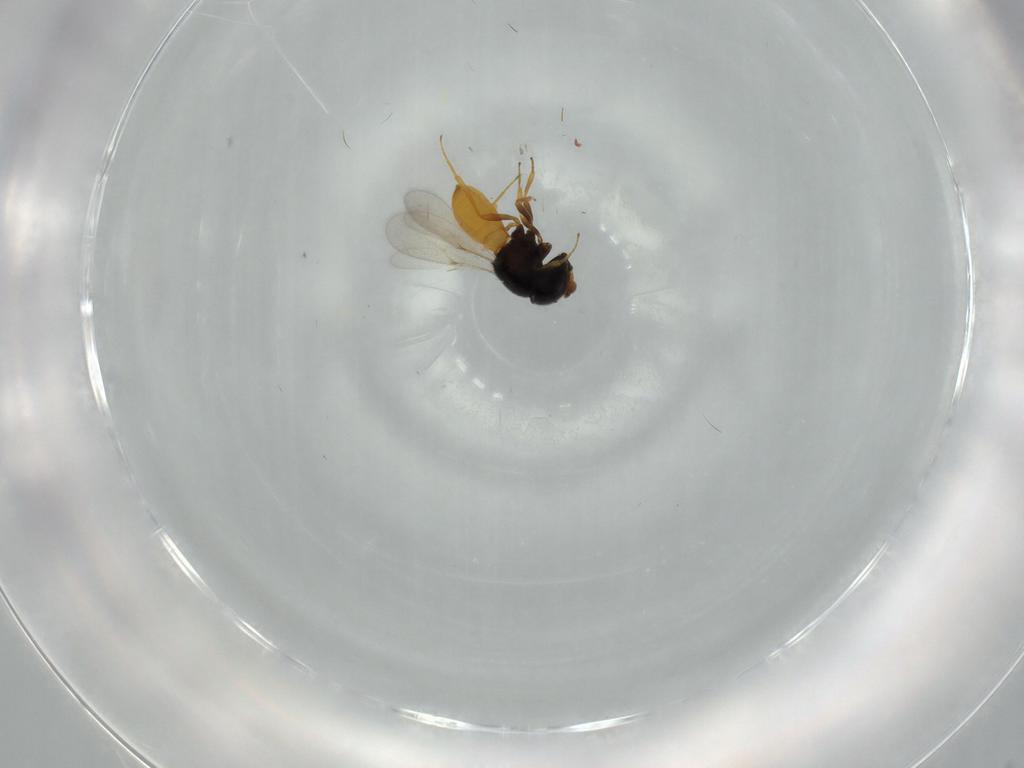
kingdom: Animalia
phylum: Arthropoda
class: Insecta
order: Hymenoptera
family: Scelionidae
